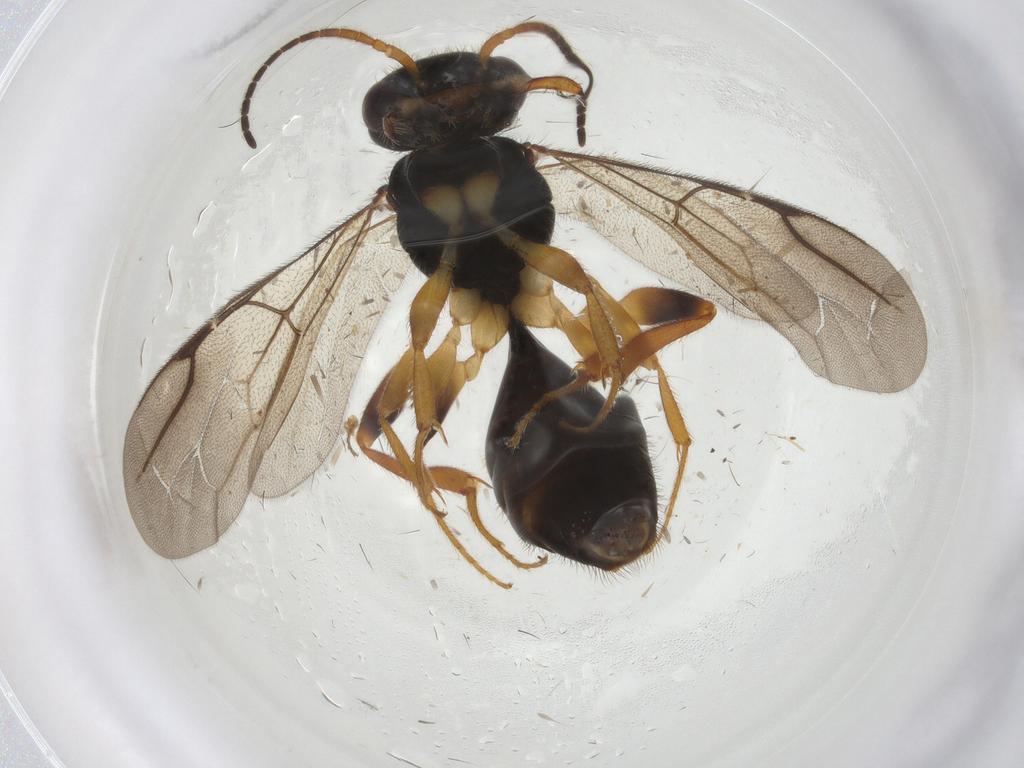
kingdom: Animalia
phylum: Arthropoda
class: Insecta
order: Hymenoptera
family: Bethylidae
